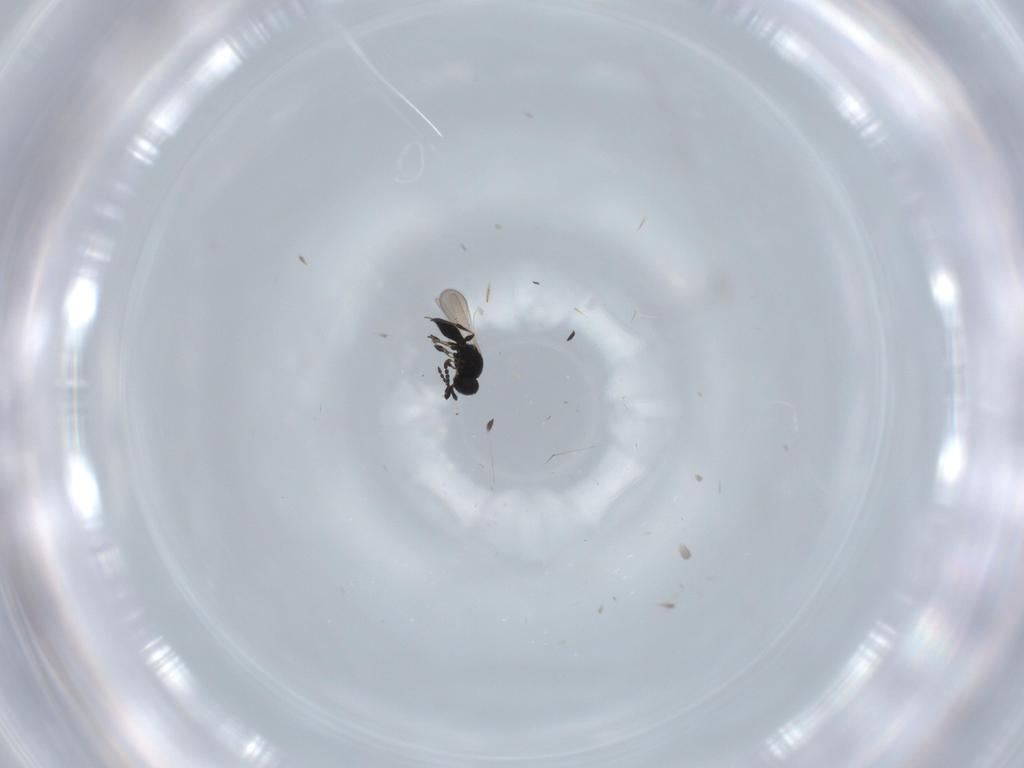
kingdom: Animalia
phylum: Arthropoda
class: Insecta
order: Hymenoptera
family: Platygastridae
